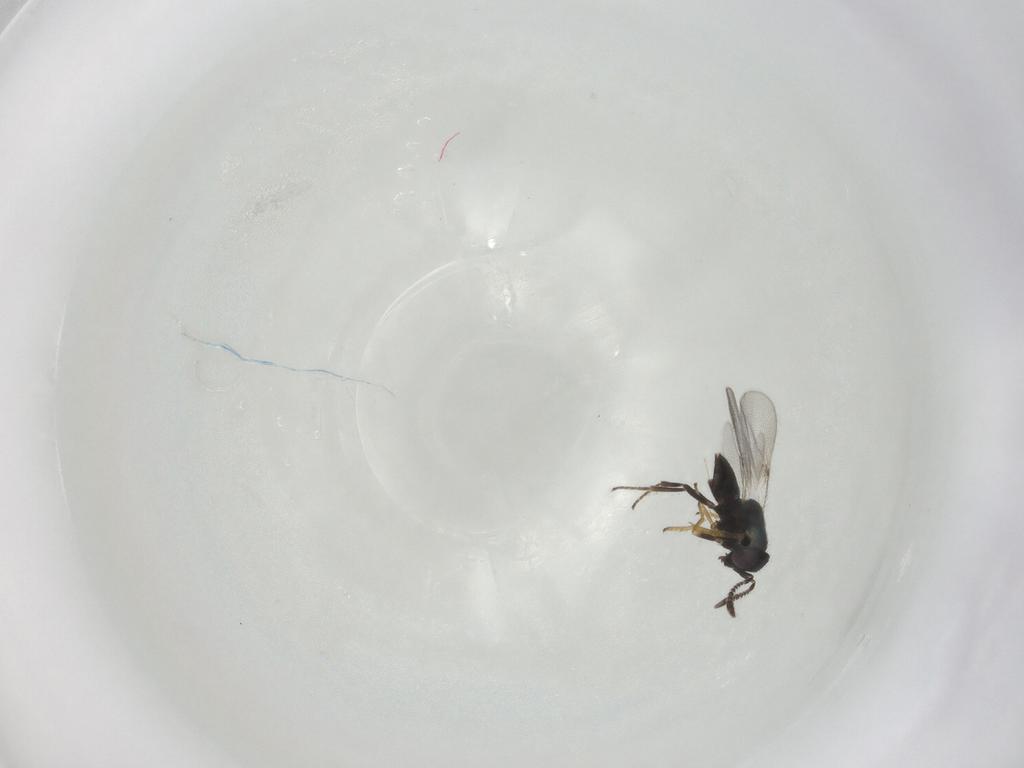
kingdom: Animalia
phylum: Arthropoda
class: Insecta
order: Hymenoptera
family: Encyrtidae
